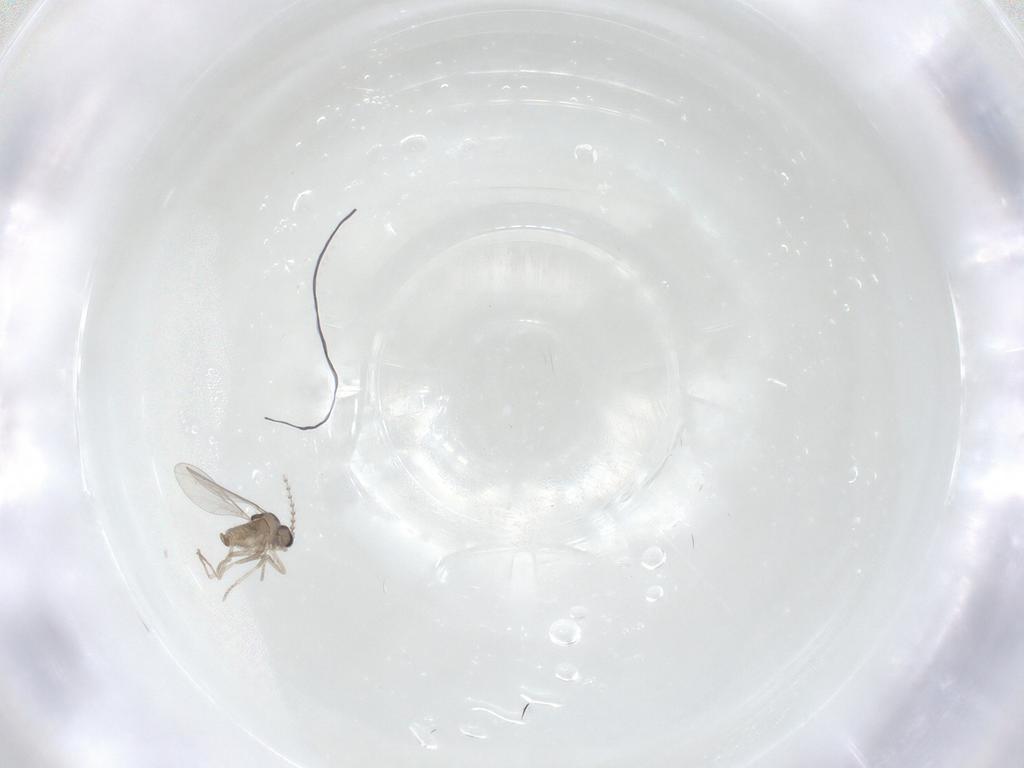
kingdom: Animalia
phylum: Arthropoda
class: Insecta
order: Diptera
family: Cecidomyiidae
